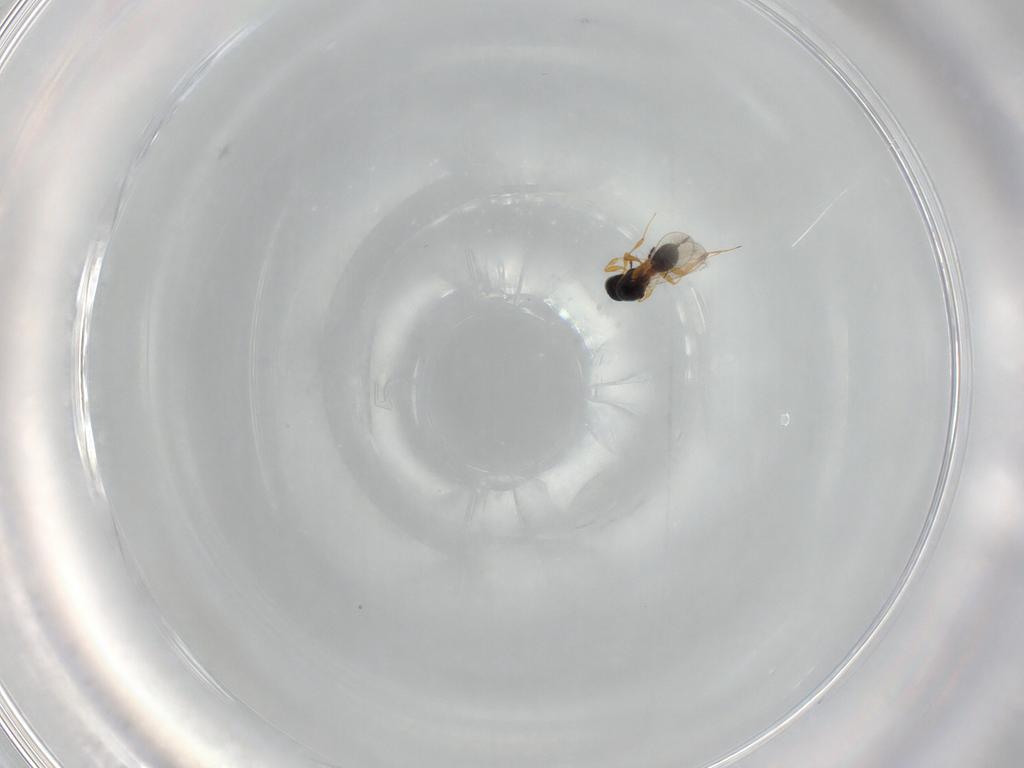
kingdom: Animalia
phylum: Arthropoda
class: Insecta
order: Hymenoptera
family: Platygastridae
